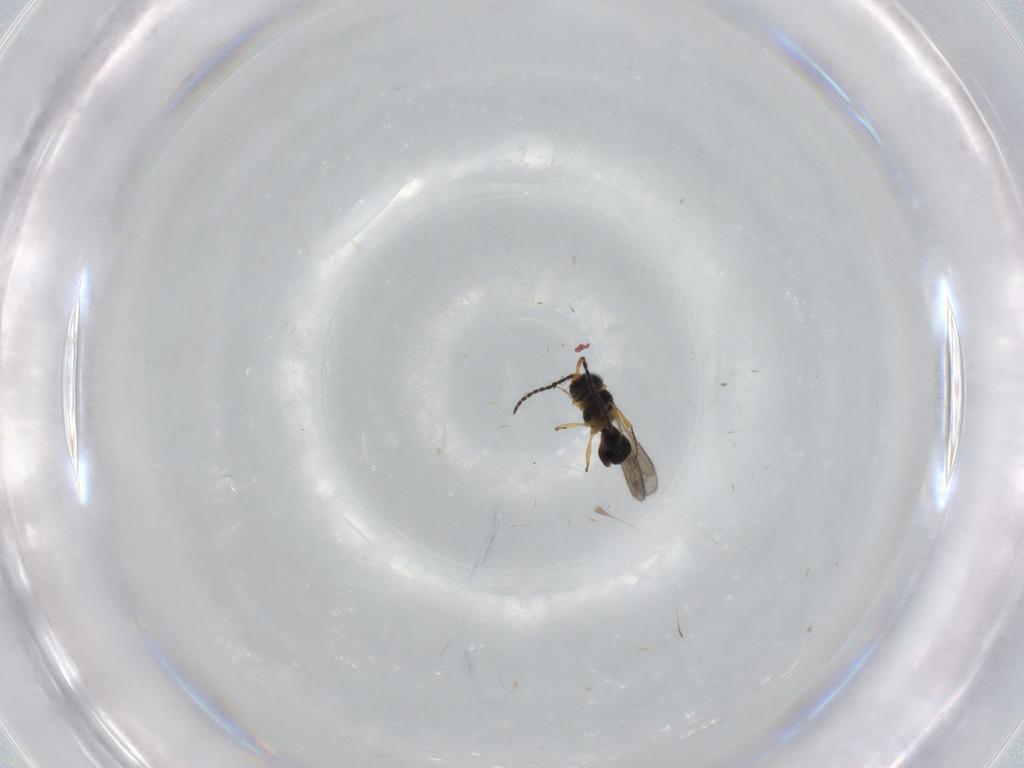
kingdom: Animalia
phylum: Arthropoda
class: Insecta
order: Hymenoptera
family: Scelionidae
